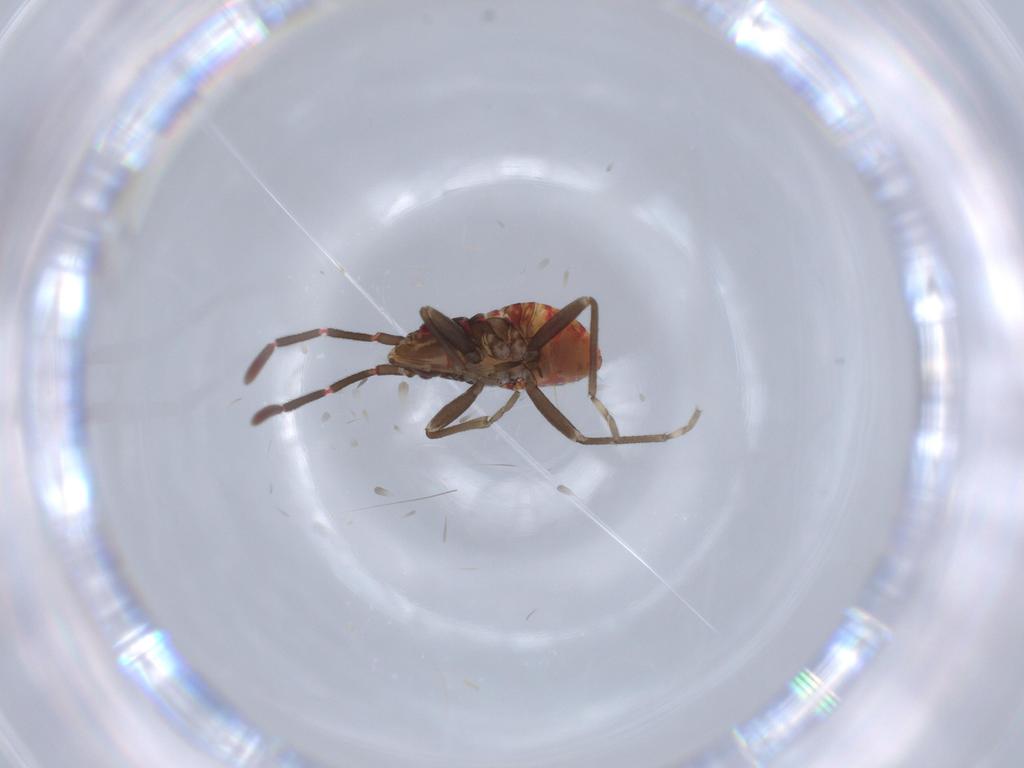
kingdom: Animalia
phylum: Arthropoda
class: Insecta
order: Hemiptera
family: Rhyparochromidae
